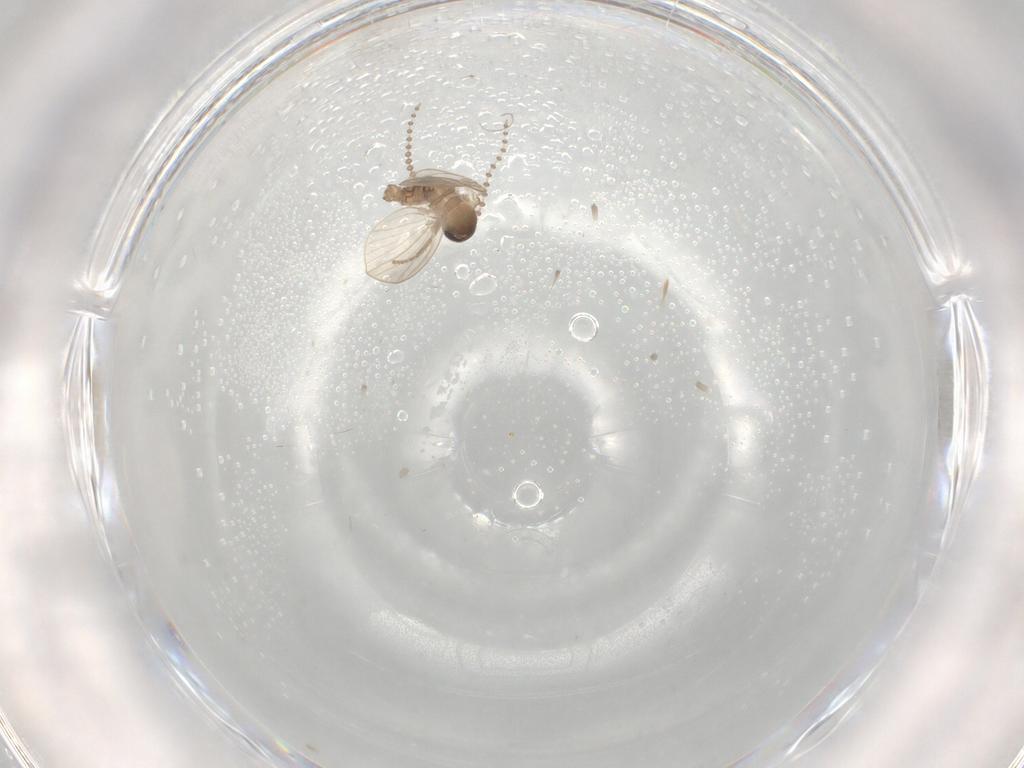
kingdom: Animalia
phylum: Arthropoda
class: Insecta
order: Diptera
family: Psychodidae
